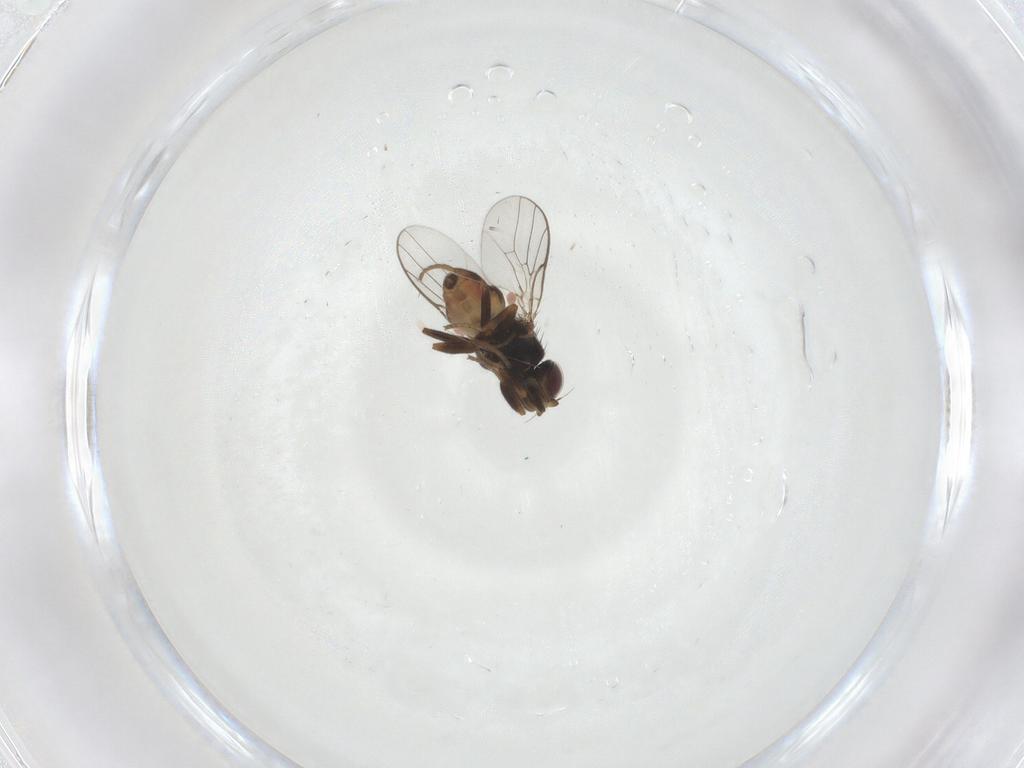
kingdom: Animalia
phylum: Arthropoda
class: Insecta
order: Diptera
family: Chloropidae
